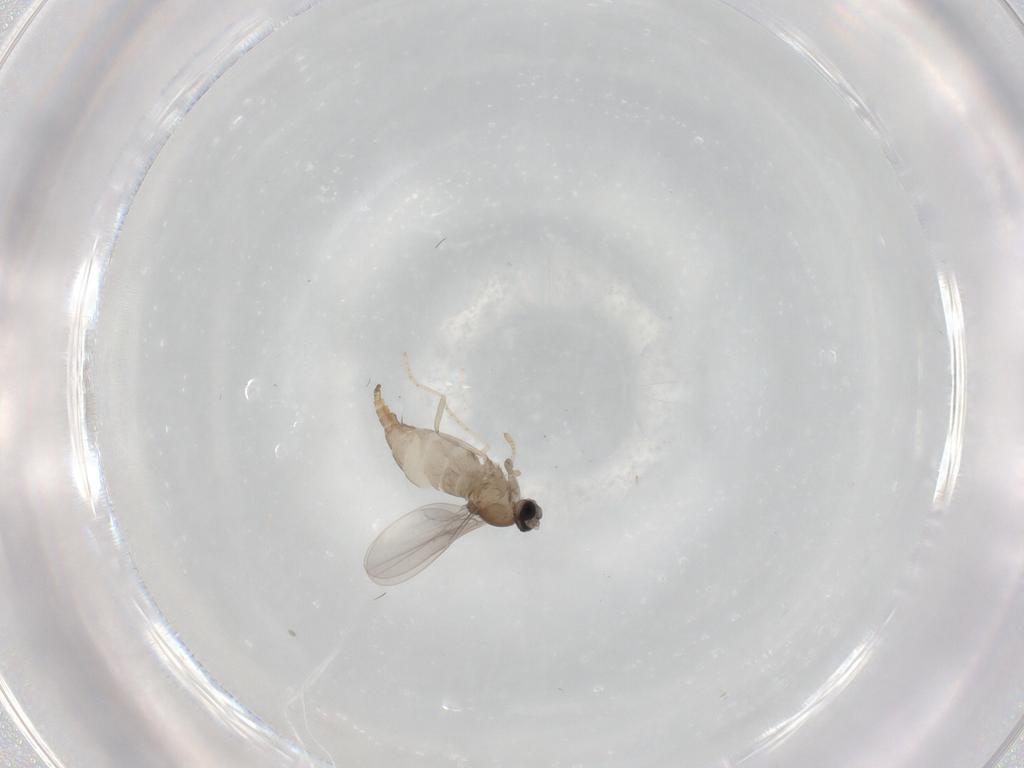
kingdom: Animalia
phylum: Arthropoda
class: Insecta
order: Diptera
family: Cecidomyiidae
